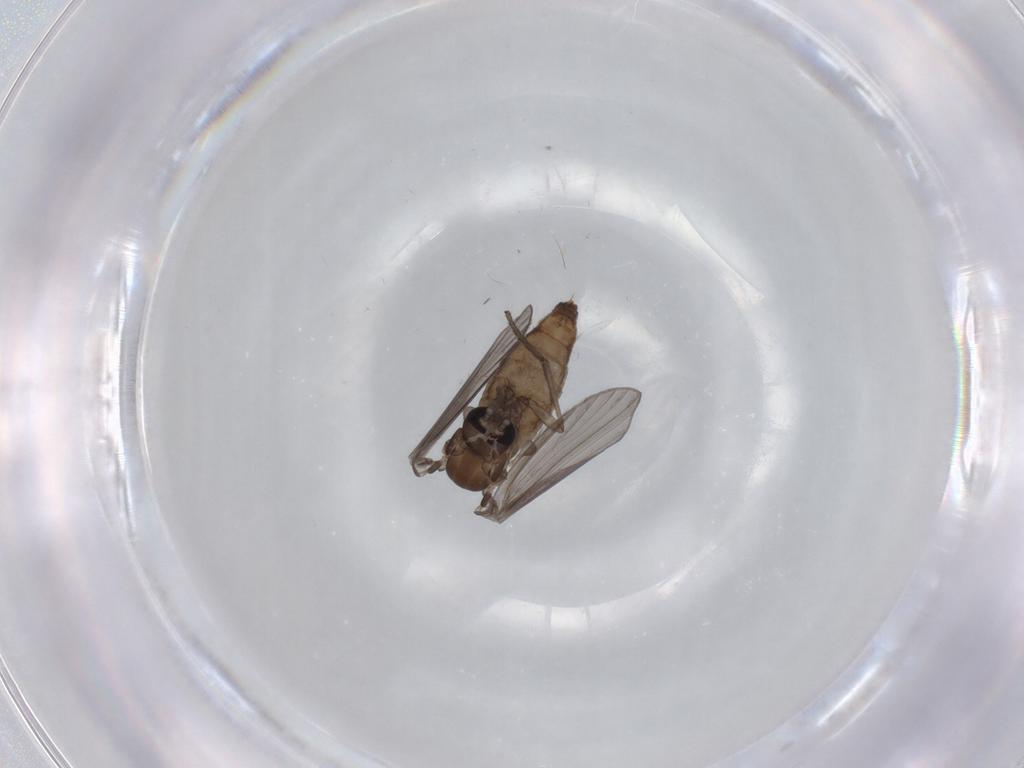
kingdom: Animalia
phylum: Arthropoda
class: Insecta
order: Diptera
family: Psychodidae
